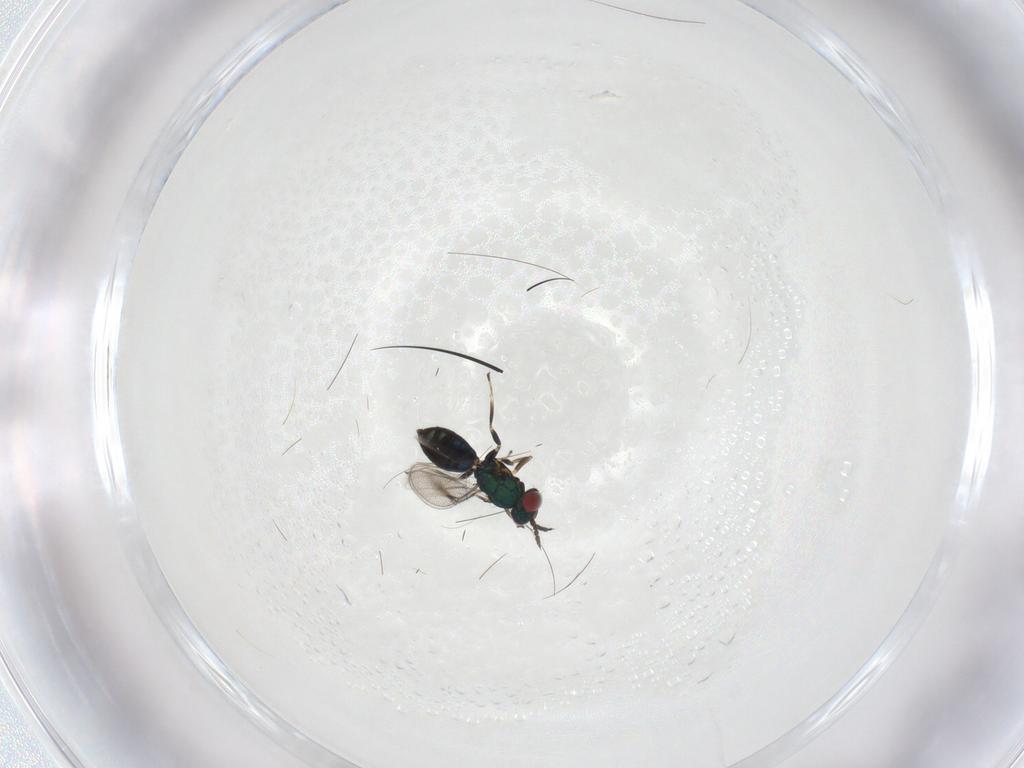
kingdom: Animalia
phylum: Arthropoda
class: Insecta
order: Hymenoptera
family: Eulophidae
